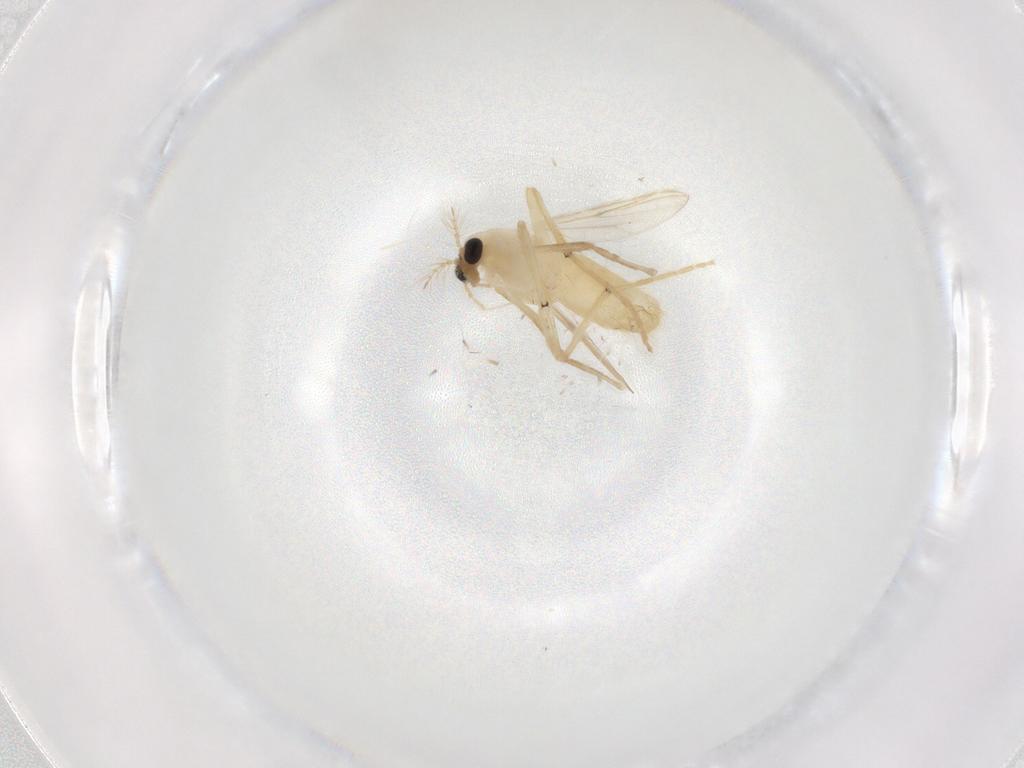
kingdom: Animalia
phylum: Arthropoda
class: Insecta
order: Diptera
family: Chironomidae
